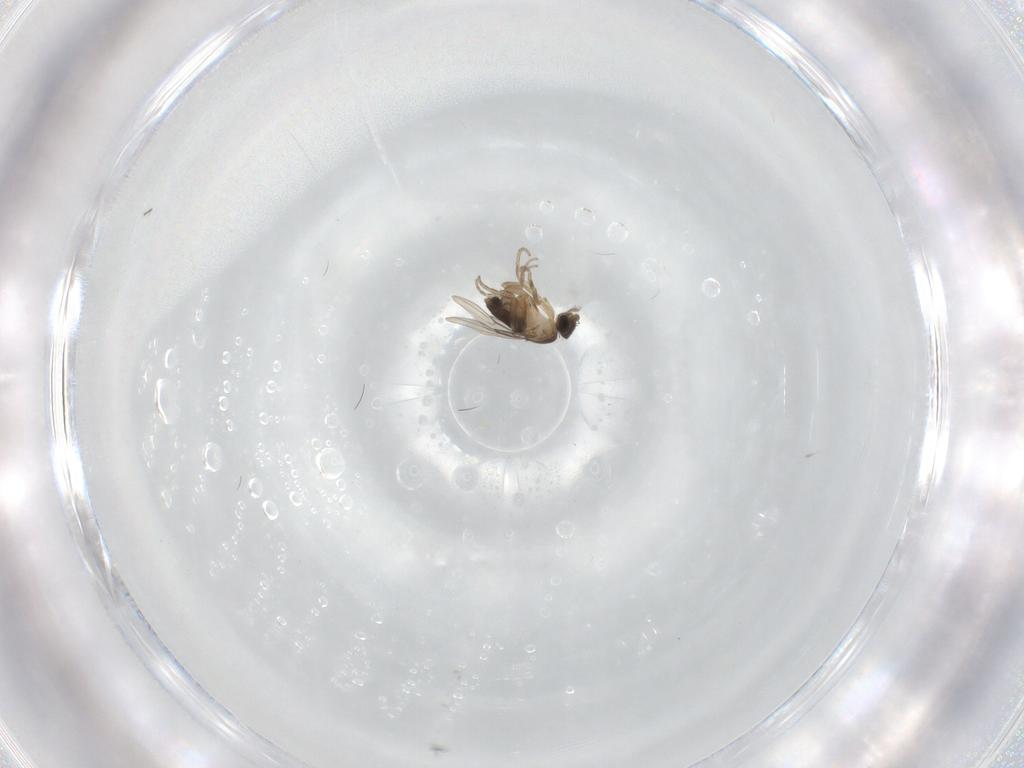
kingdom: Animalia
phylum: Arthropoda
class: Insecta
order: Diptera
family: Phoridae
